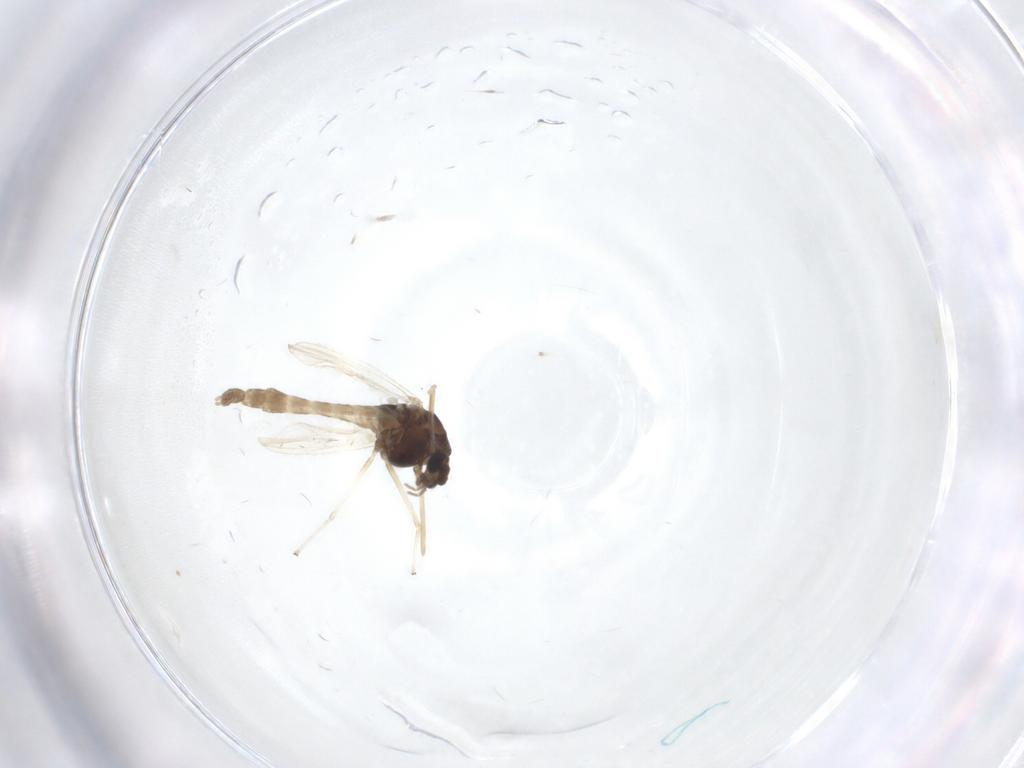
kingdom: Animalia
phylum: Arthropoda
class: Insecta
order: Diptera
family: Chironomidae
